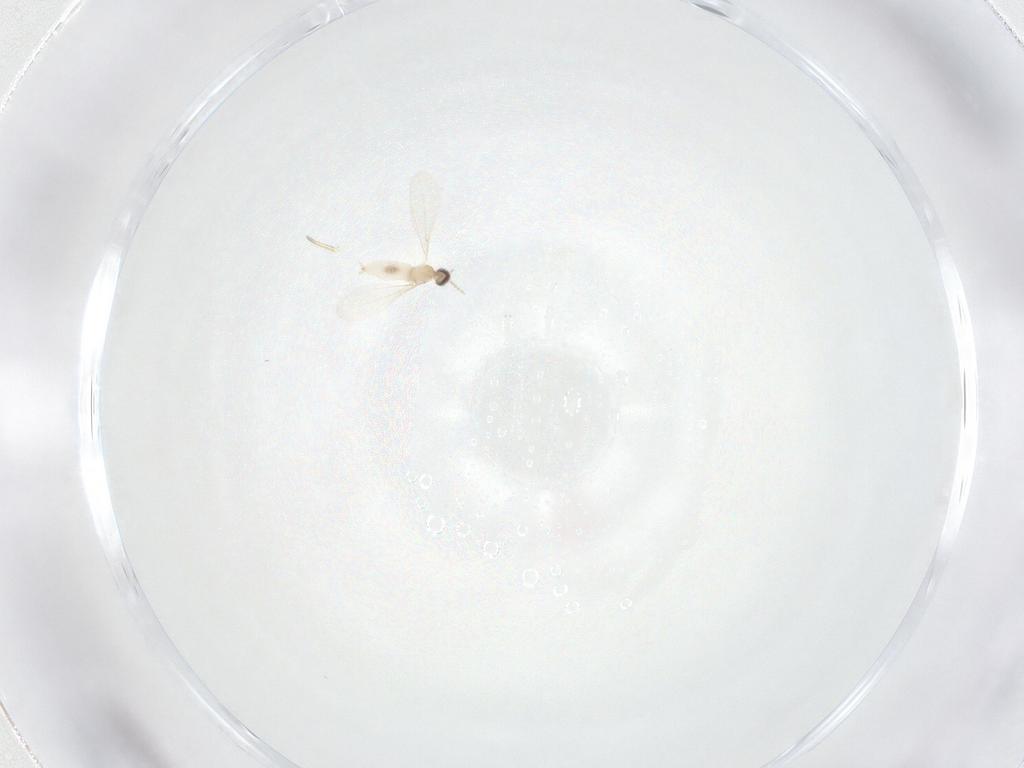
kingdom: Animalia
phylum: Arthropoda
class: Insecta
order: Diptera
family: Cecidomyiidae
